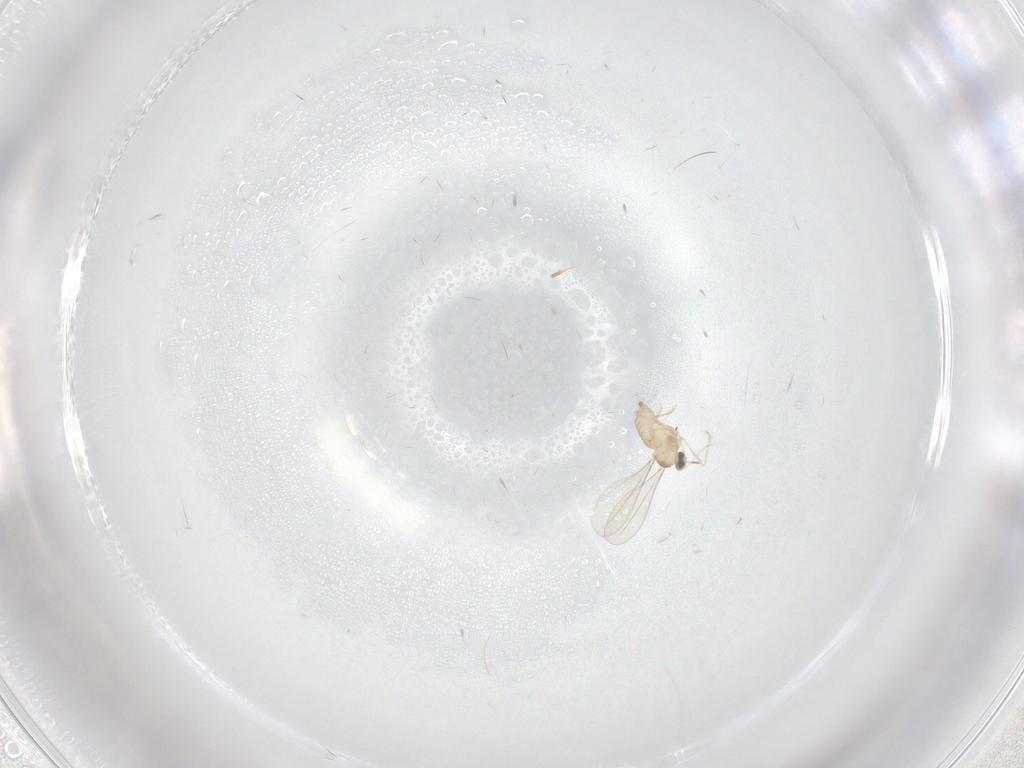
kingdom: Animalia
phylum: Arthropoda
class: Insecta
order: Diptera
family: Cecidomyiidae
